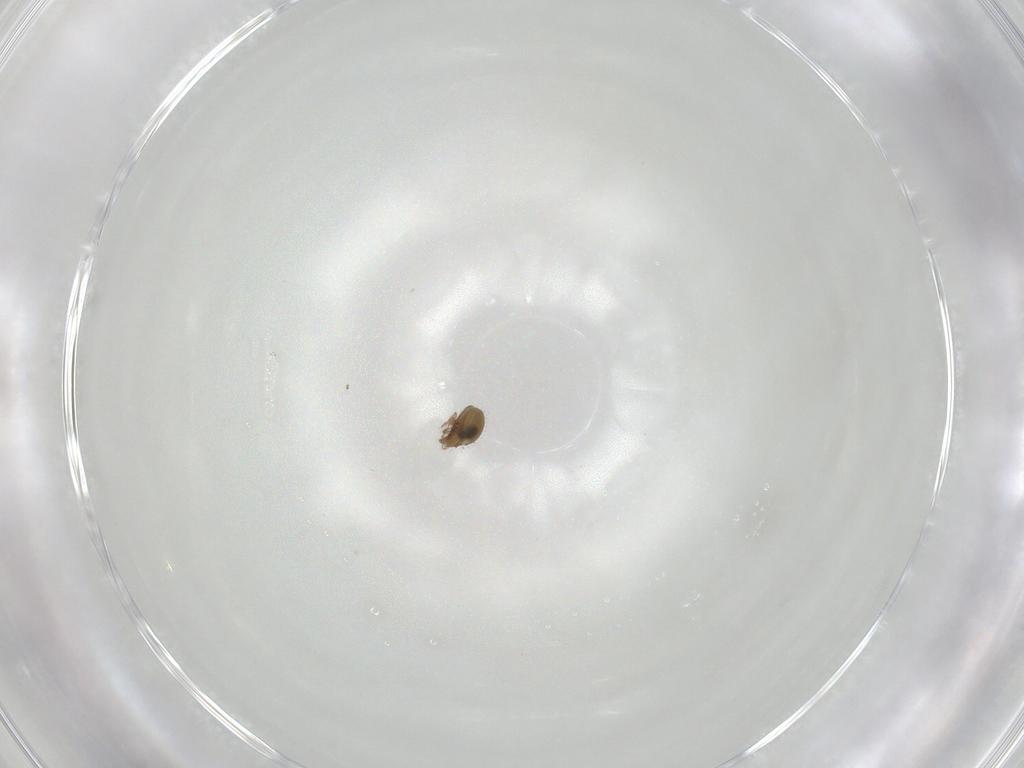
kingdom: Animalia
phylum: Arthropoda
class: Arachnida
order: Sarcoptiformes
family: Oribatulidae
